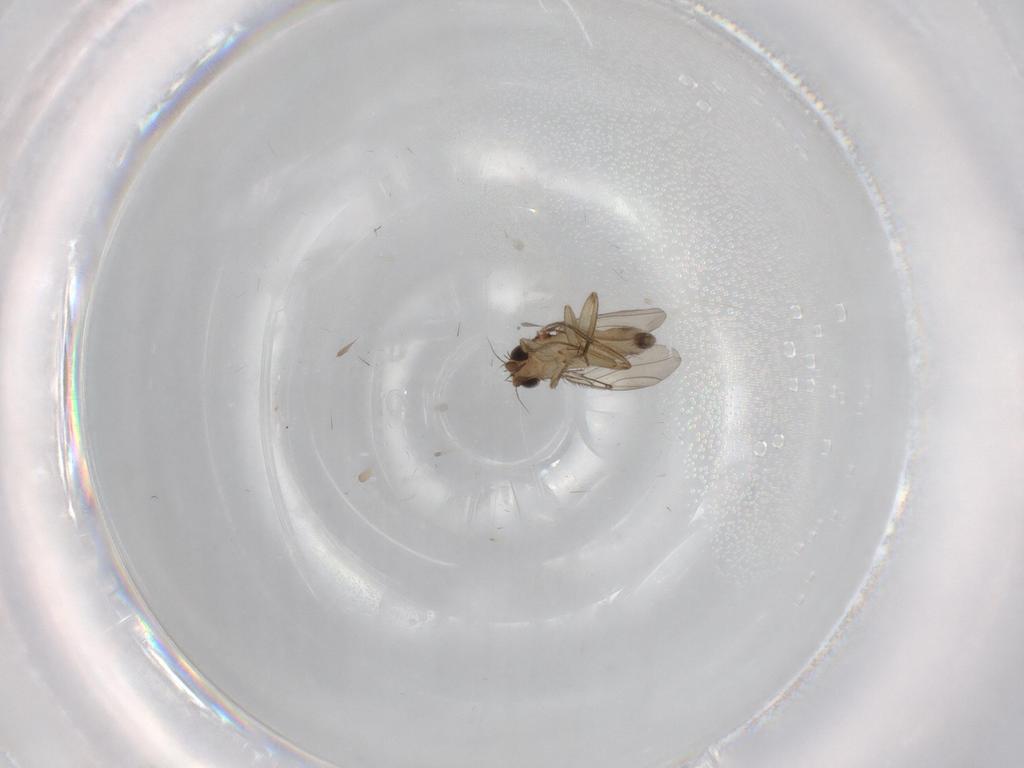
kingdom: Animalia
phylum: Arthropoda
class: Insecta
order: Diptera
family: Phoridae
